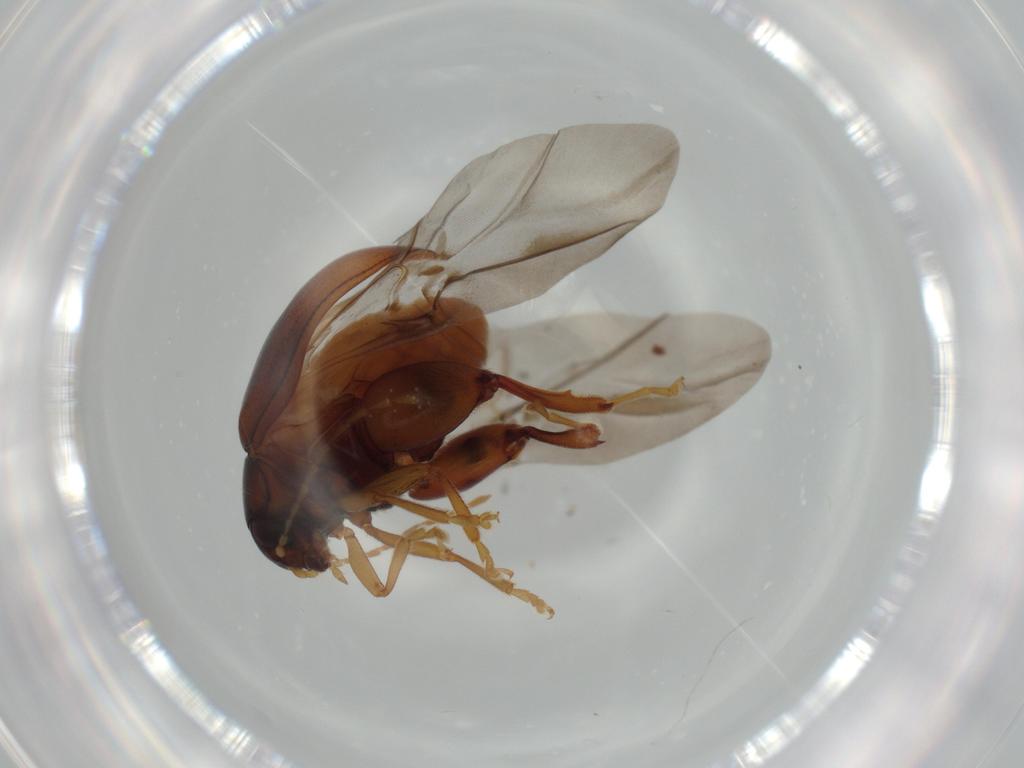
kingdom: Animalia
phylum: Arthropoda
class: Insecta
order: Coleoptera
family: Chrysomelidae
